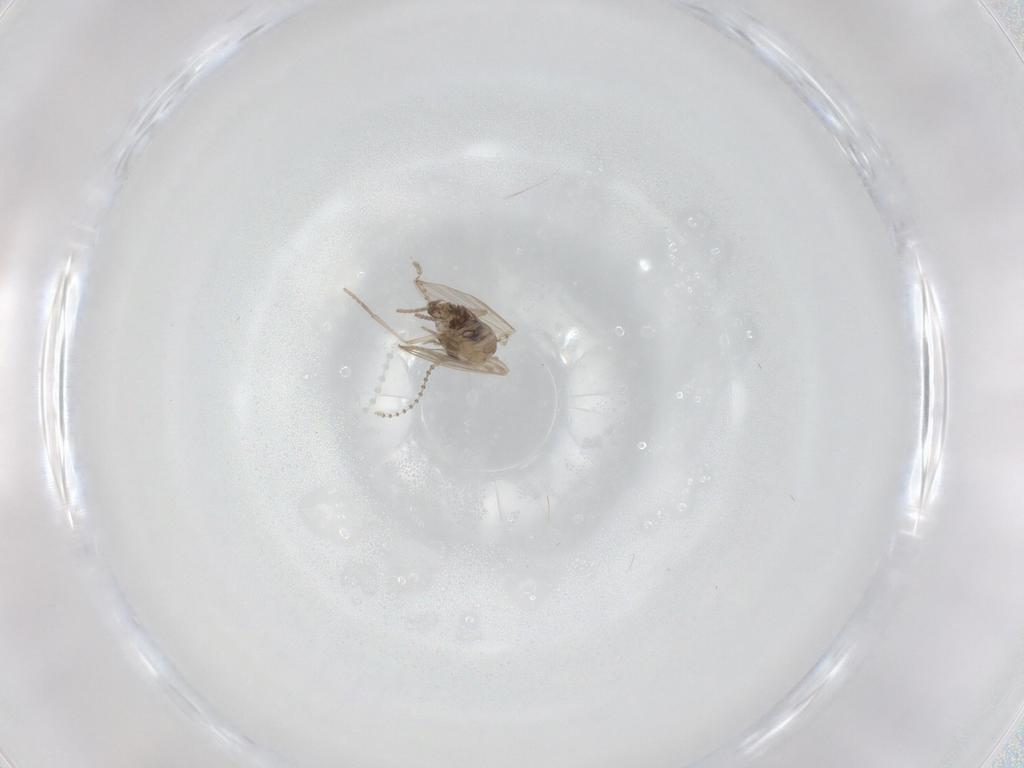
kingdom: Animalia
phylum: Arthropoda
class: Insecta
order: Diptera
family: Psychodidae
